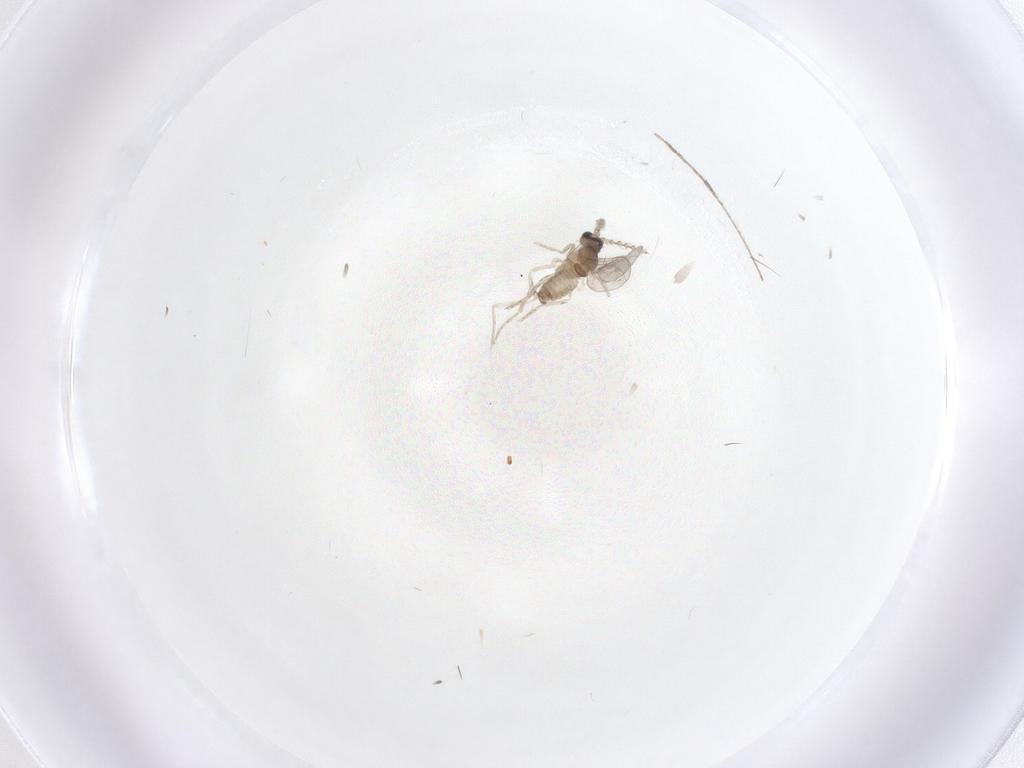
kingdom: Animalia
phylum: Arthropoda
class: Insecta
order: Diptera
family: Cecidomyiidae
